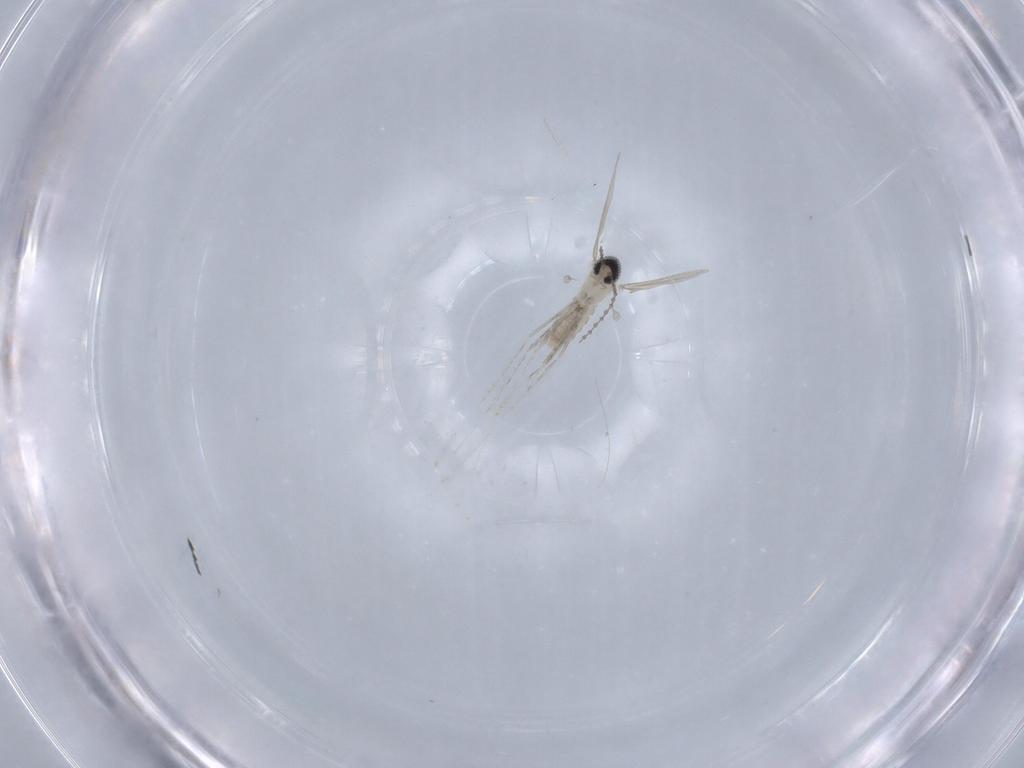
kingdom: Animalia
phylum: Arthropoda
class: Insecta
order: Diptera
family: Cecidomyiidae
